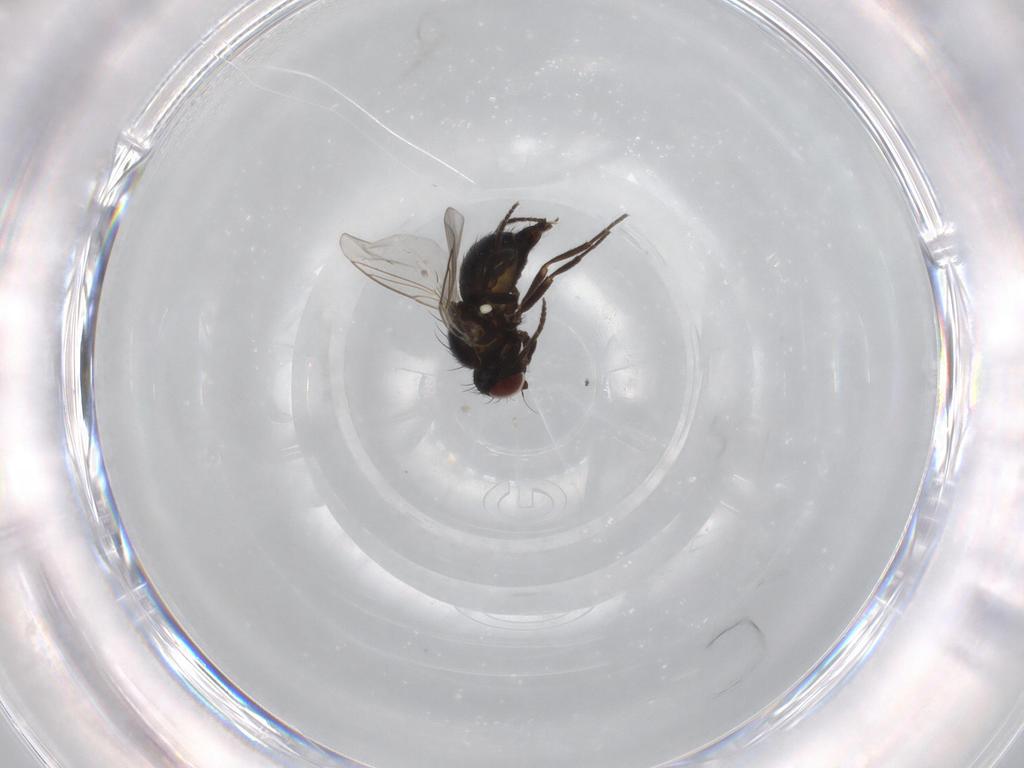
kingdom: Animalia
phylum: Arthropoda
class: Insecta
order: Diptera
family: Agromyzidae
